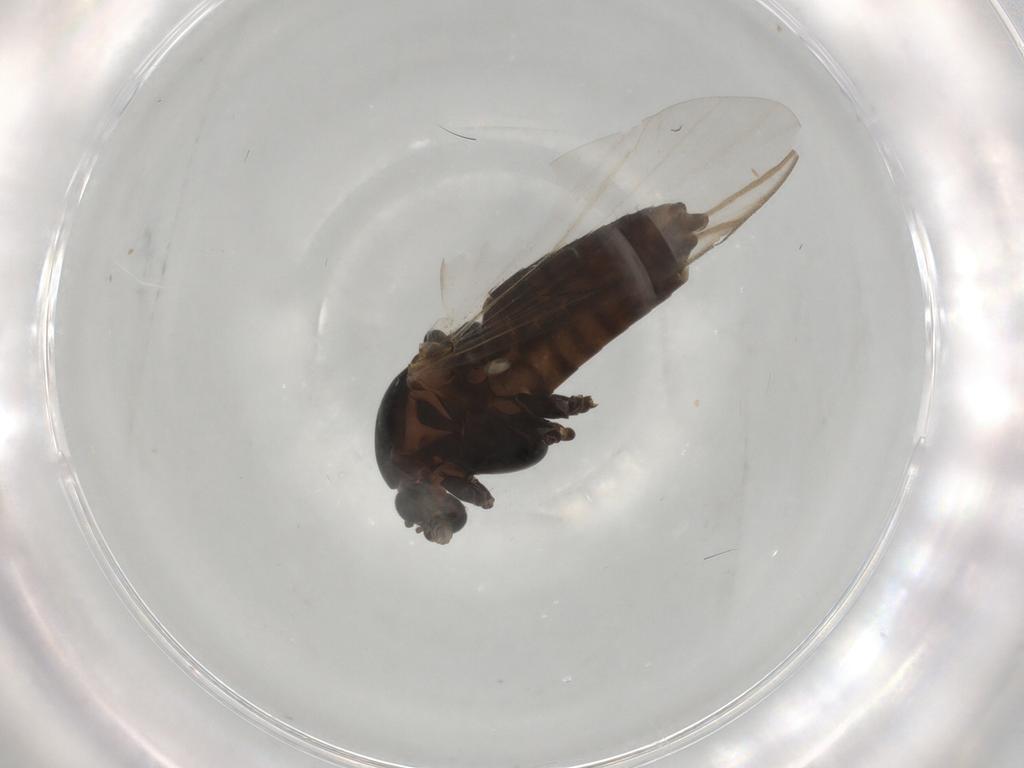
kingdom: Animalia
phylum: Arthropoda
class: Insecta
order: Diptera
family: Chironomidae
